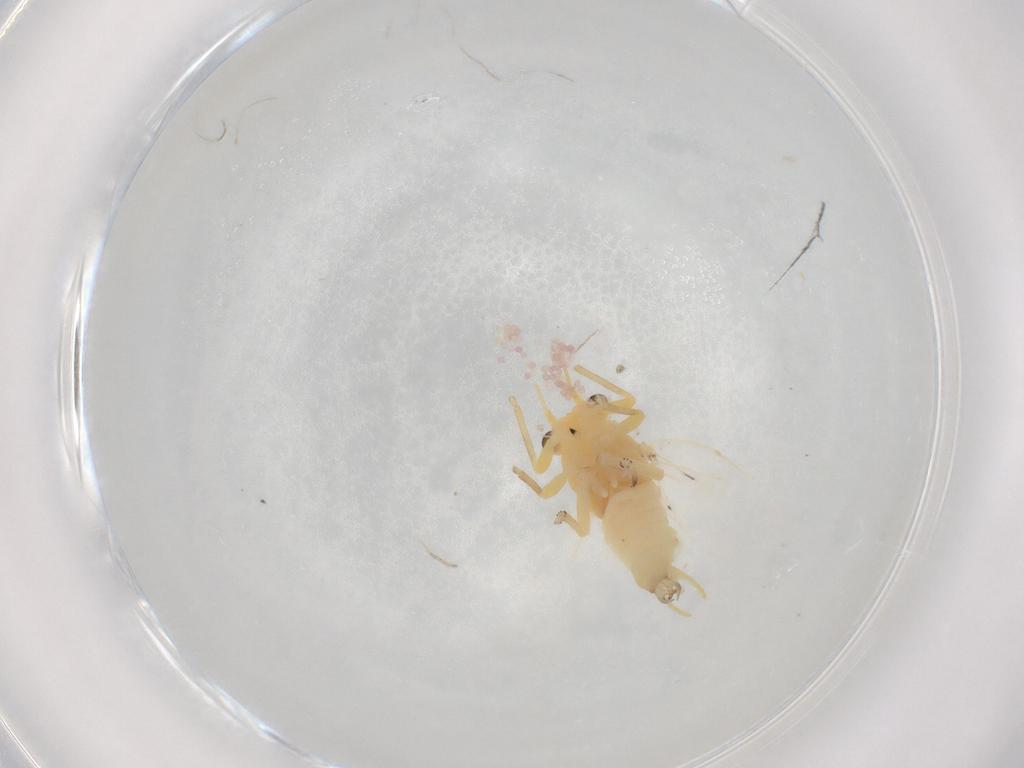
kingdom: Animalia
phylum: Arthropoda
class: Insecta
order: Hemiptera
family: Aphalaridae
